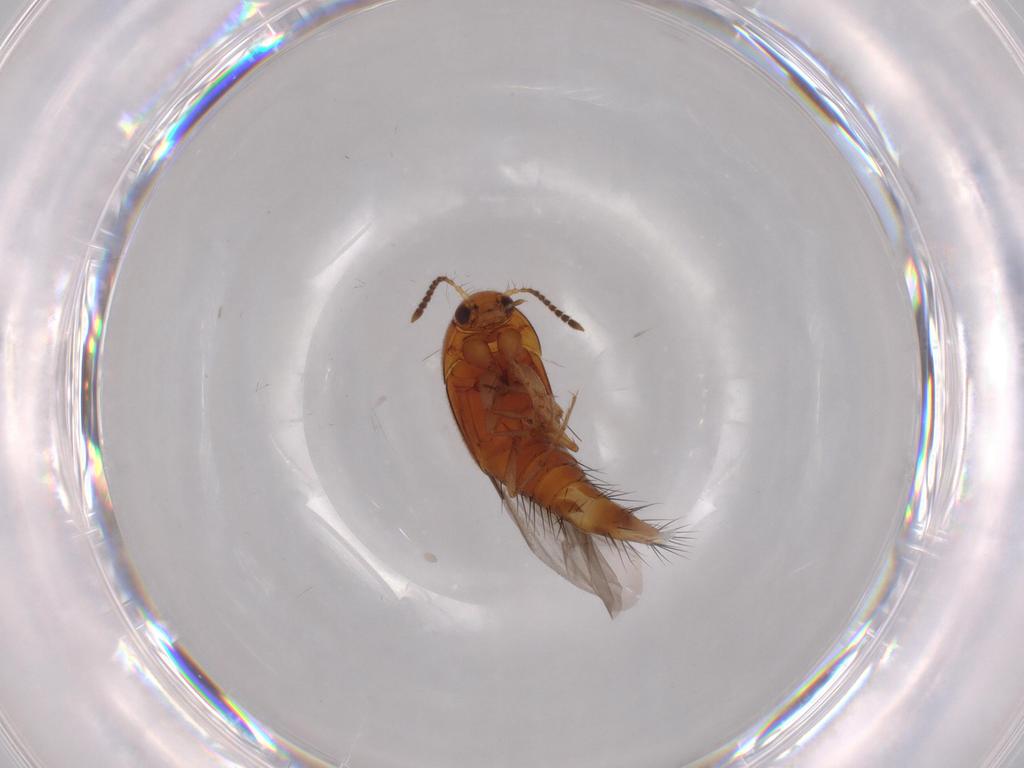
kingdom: Animalia
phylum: Arthropoda
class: Insecta
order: Coleoptera
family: Staphylinidae
